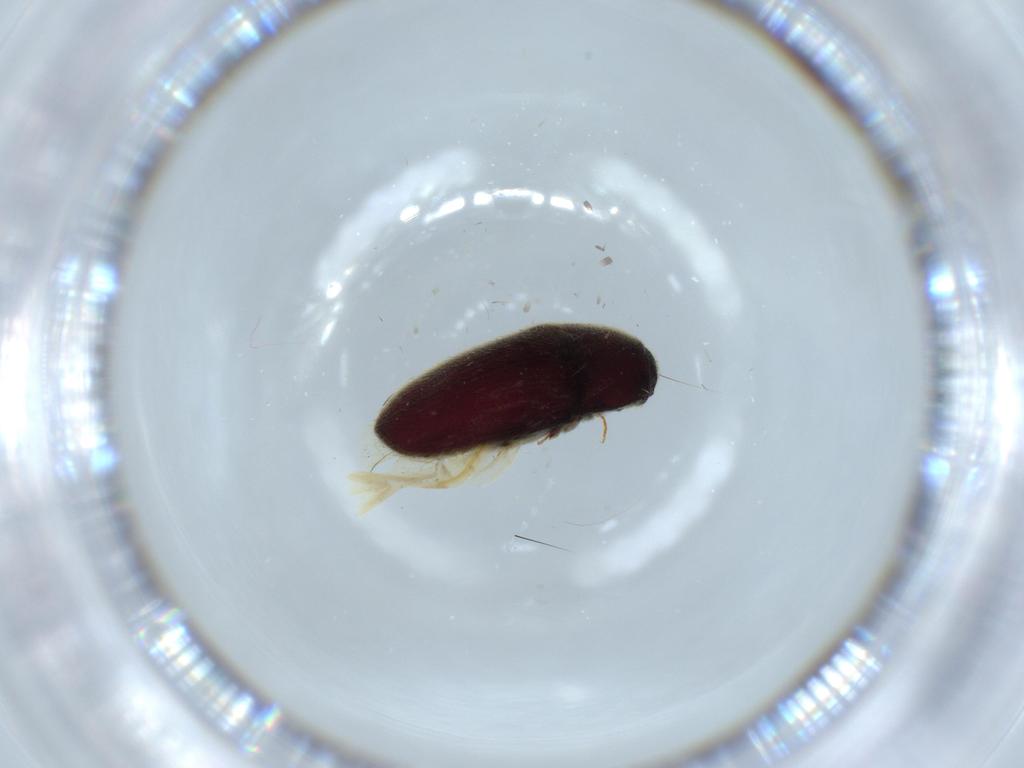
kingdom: Animalia
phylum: Arthropoda
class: Insecta
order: Coleoptera
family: Throscidae
